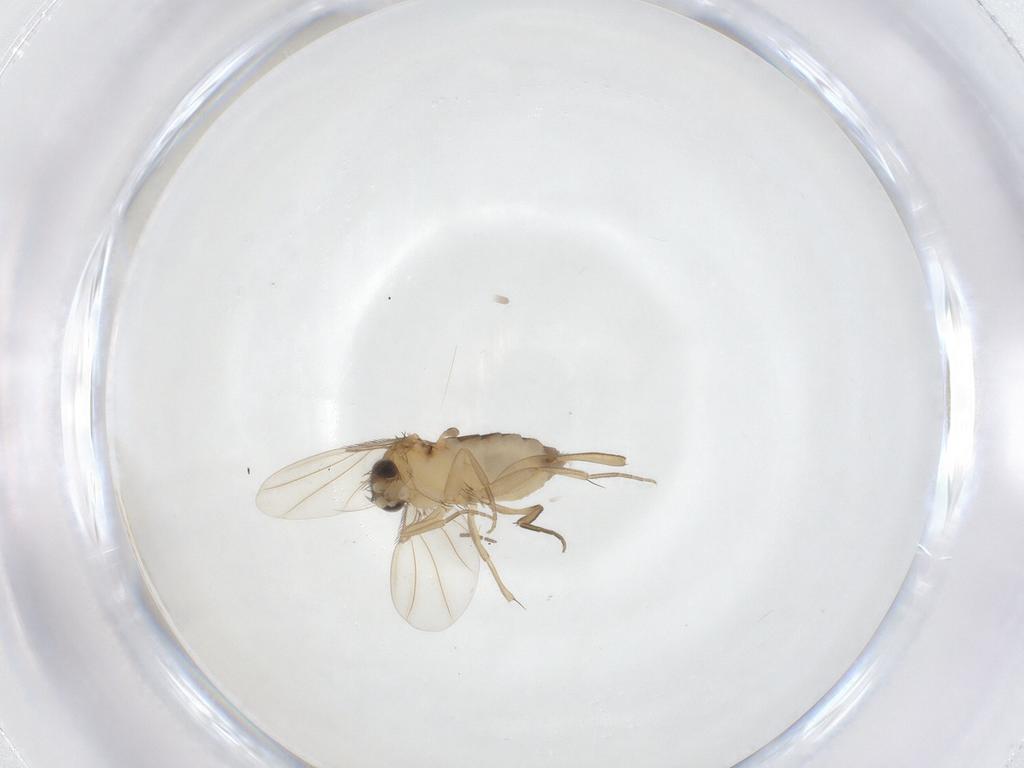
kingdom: Animalia
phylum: Arthropoda
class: Insecta
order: Diptera
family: Phoridae
